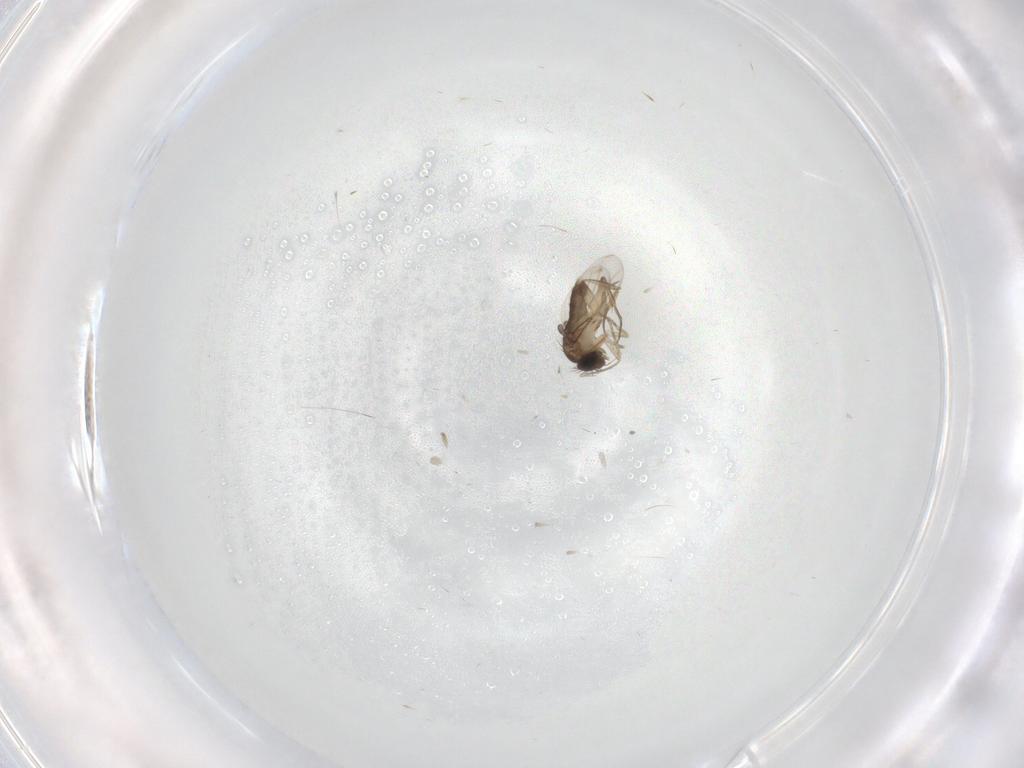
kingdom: Animalia
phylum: Arthropoda
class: Insecta
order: Diptera
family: Phoridae
